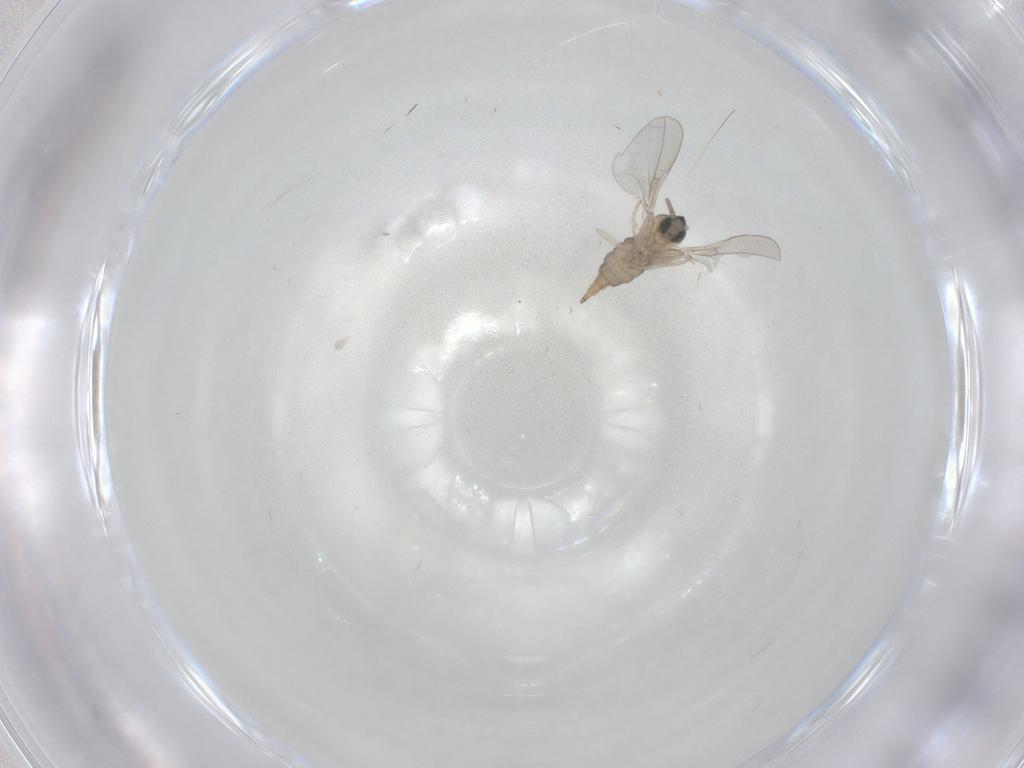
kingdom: Animalia
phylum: Arthropoda
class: Insecta
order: Diptera
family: Cecidomyiidae
